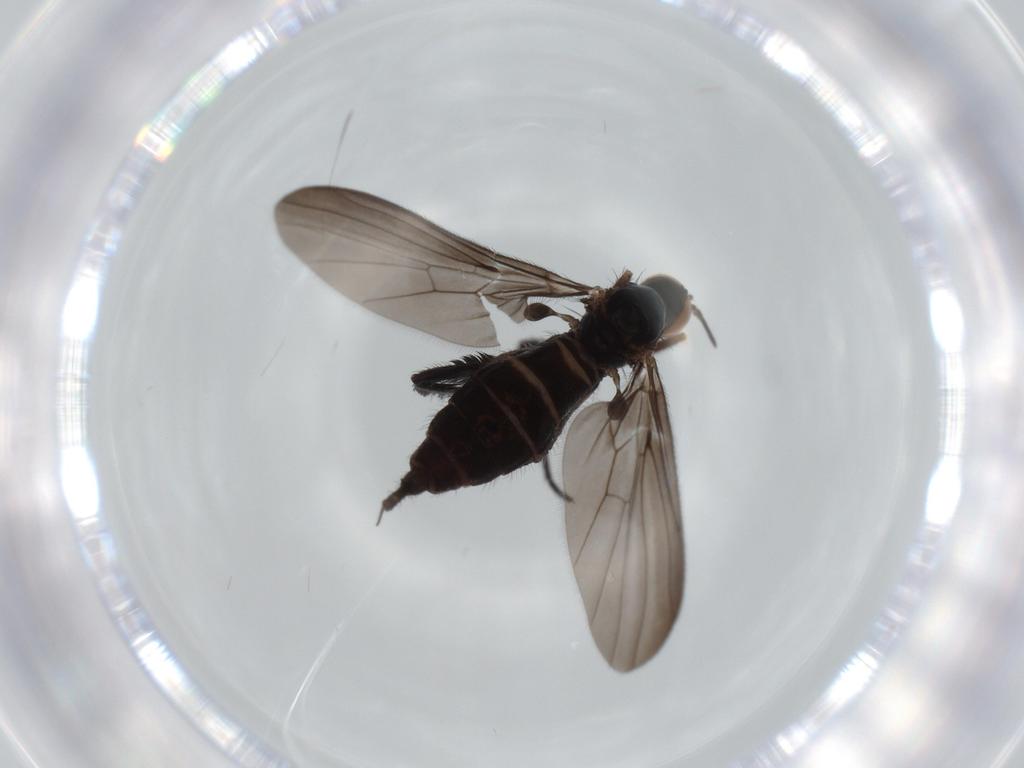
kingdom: Animalia
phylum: Arthropoda
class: Insecta
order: Diptera
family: Empididae
